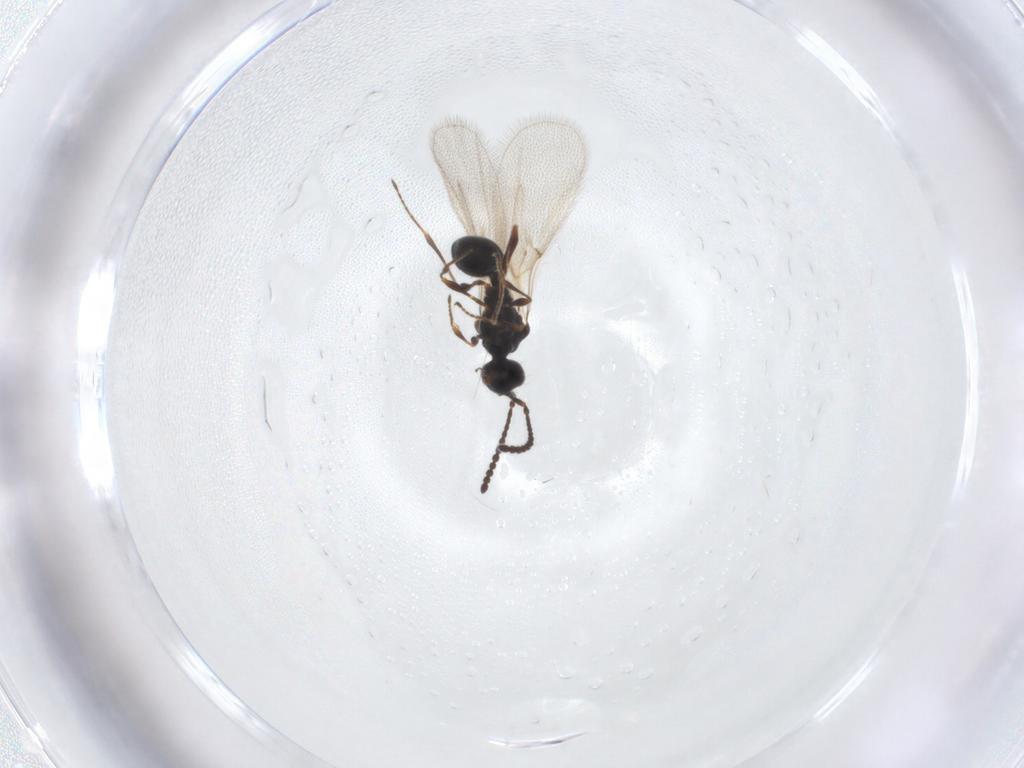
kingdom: Animalia
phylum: Arthropoda
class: Insecta
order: Hymenoptera
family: Diapriidae
